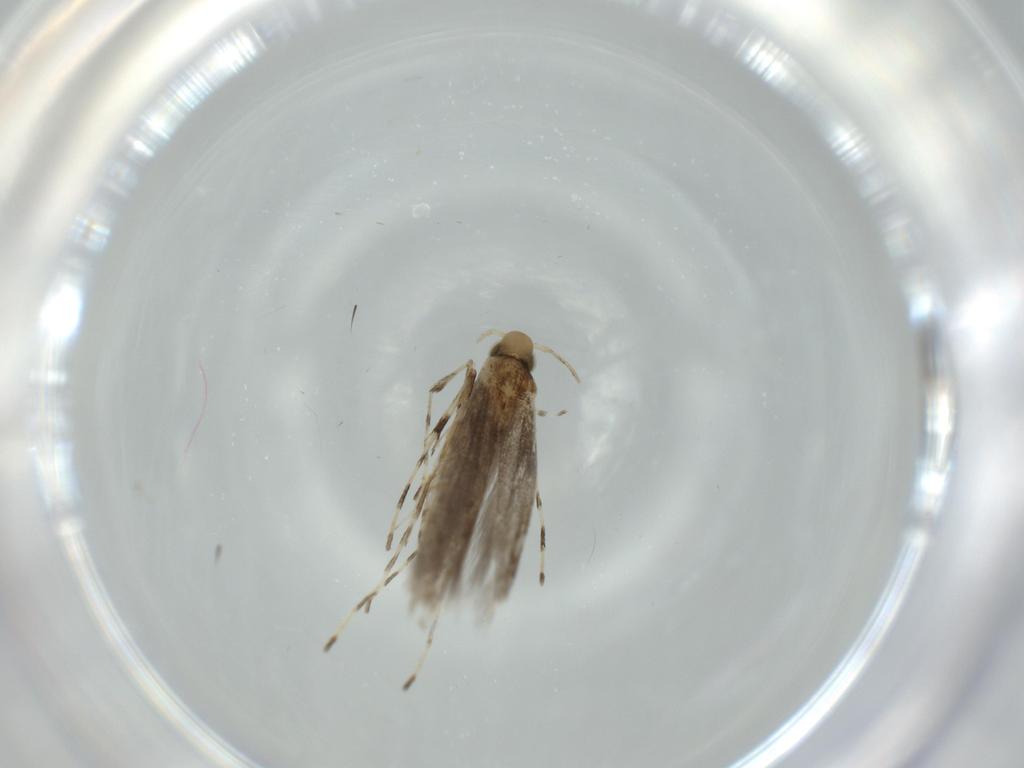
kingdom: Animalia
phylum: Arthropoda
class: Insecta
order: Lepidoptera
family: Gracillariidae
